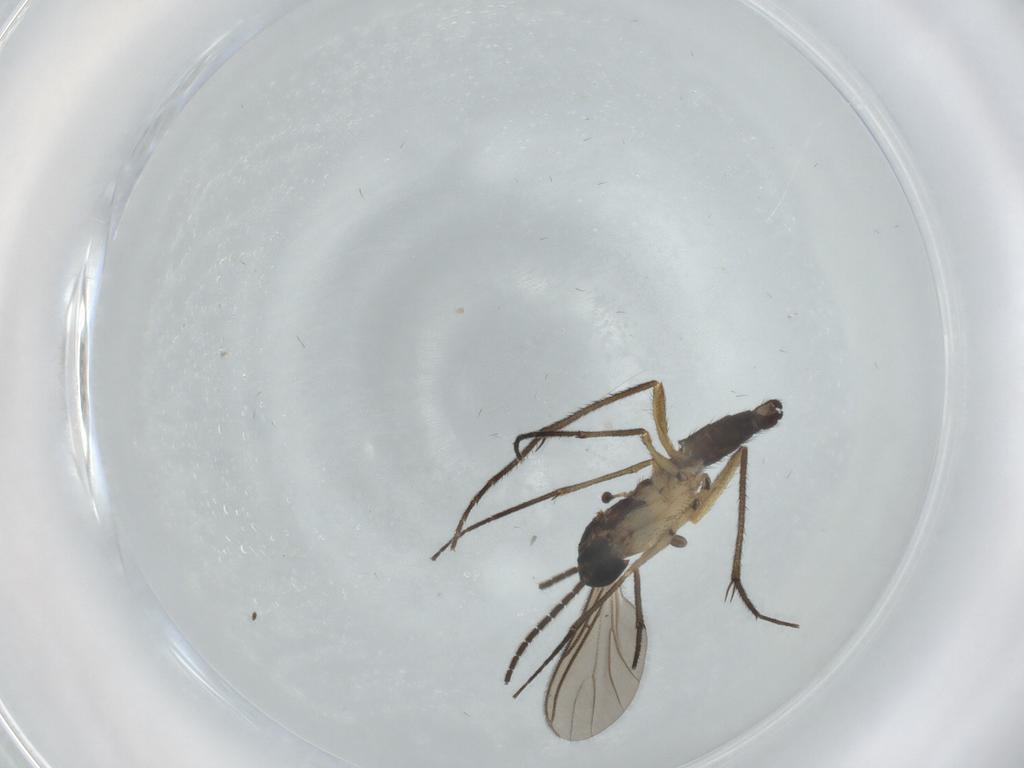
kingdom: Animalia
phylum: Arthropoda
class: Insecta
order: Diptera
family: Sciaridae
